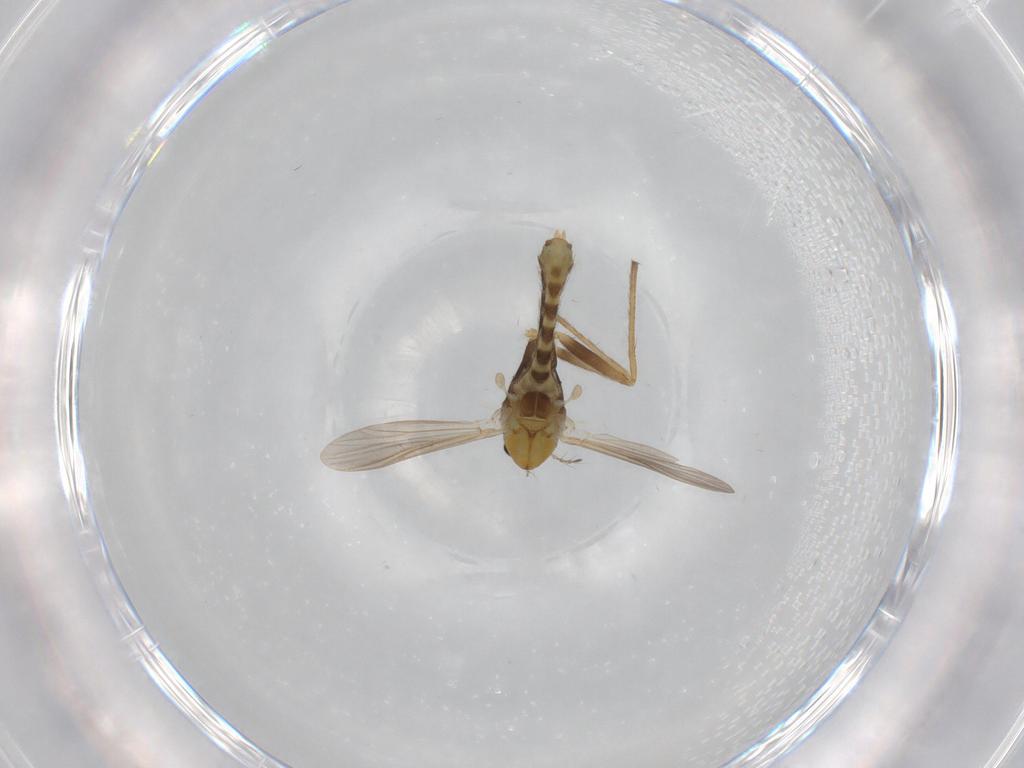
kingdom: Animalia
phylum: Arthropoda
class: Insecta
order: Diptera
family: Chironomidae
